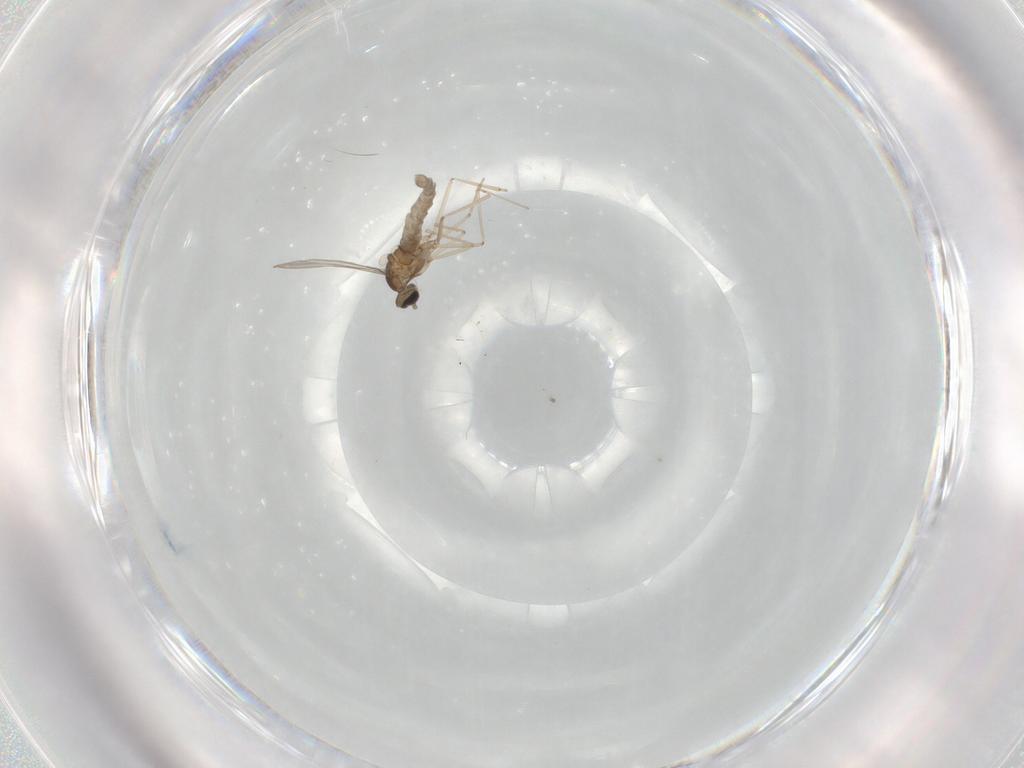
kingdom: Animalia
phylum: Arthropoda
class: Insecta
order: Diptera
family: Cecidomyiidae
